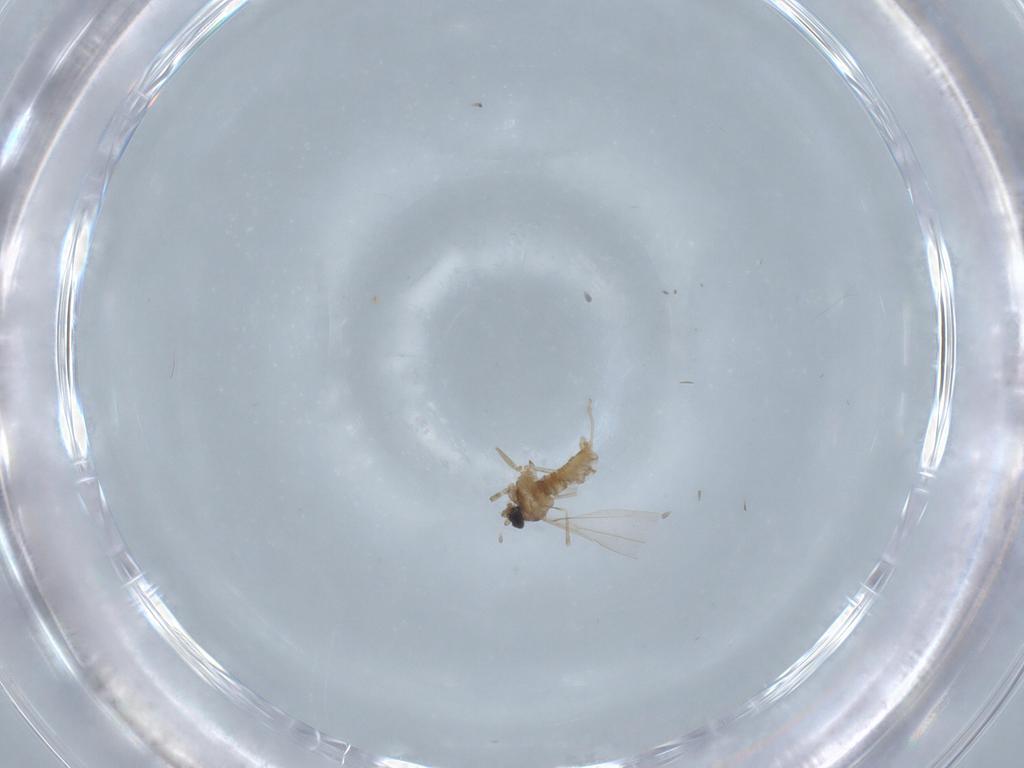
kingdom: Animalia
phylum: Arthropoda
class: Insecta
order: Diptera
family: Cecidomyiidae
